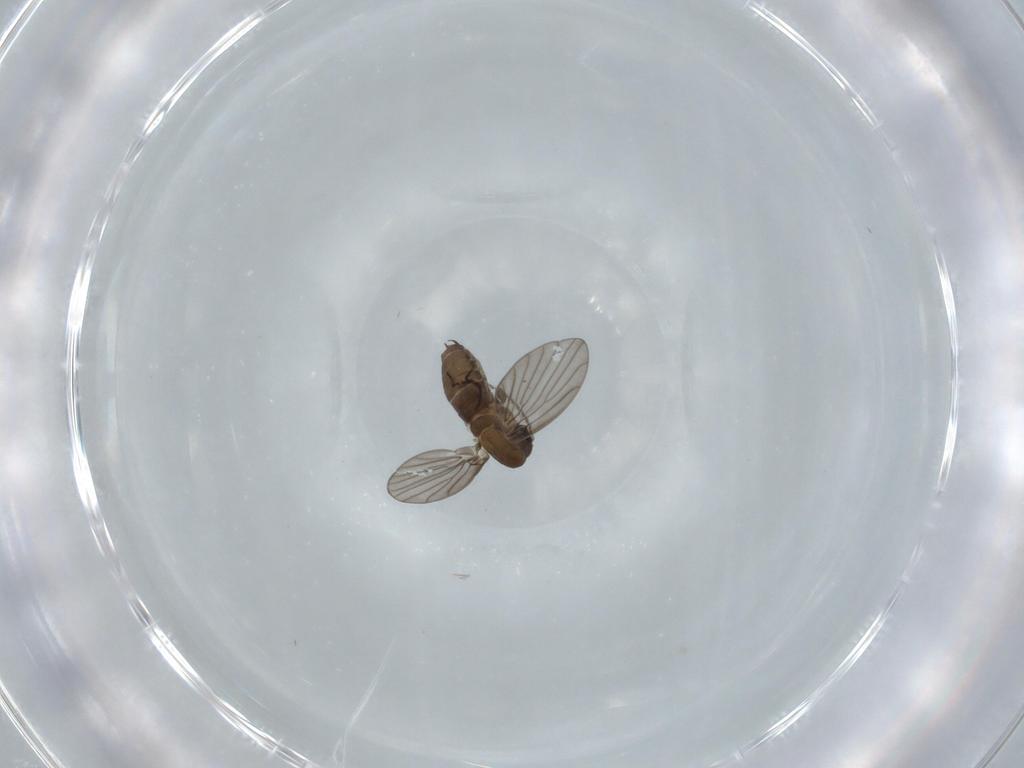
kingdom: Animalia
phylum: Arthropoda
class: Insecta
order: Diptera
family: Psychodidae
